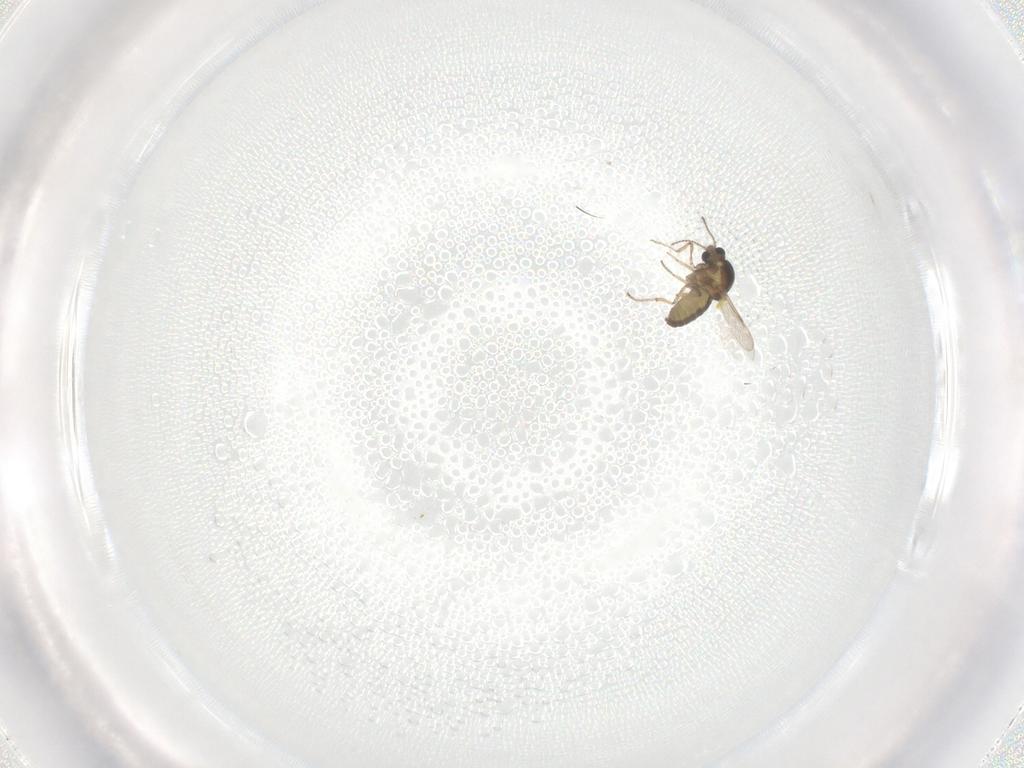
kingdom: Animalia
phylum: Arthropoda
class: Insecta
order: Diptera
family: Ceratopogonidae
